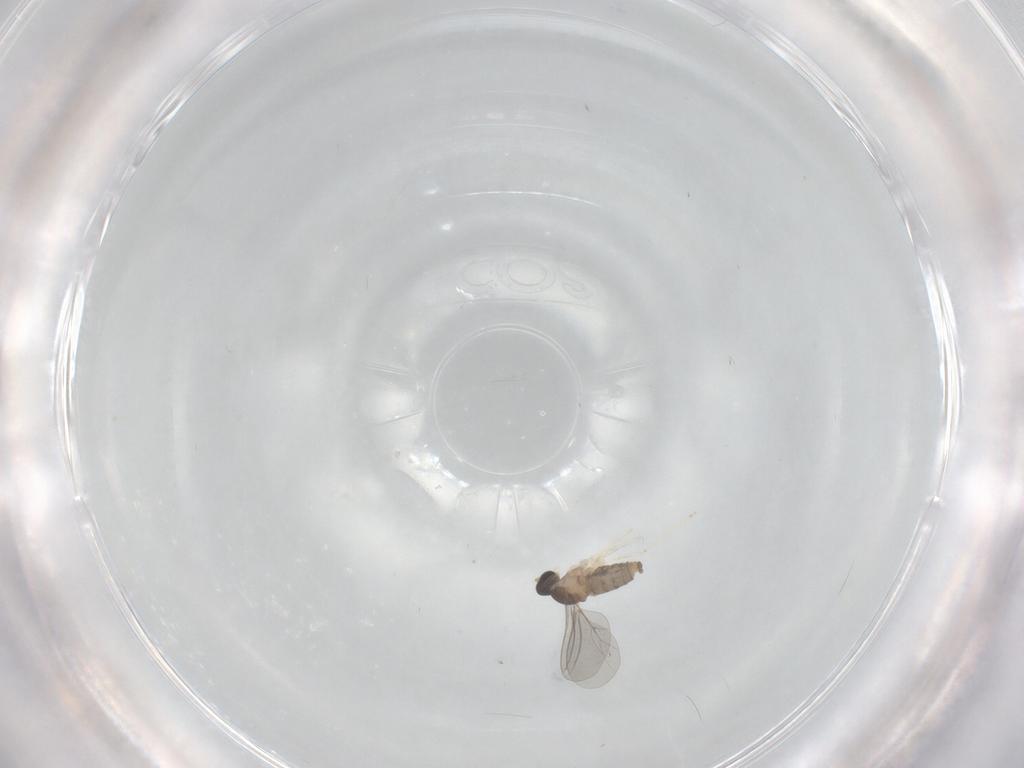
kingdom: Animalia
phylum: Arthropoda
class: Insecta
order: Diptera
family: Cecidomyiidae
